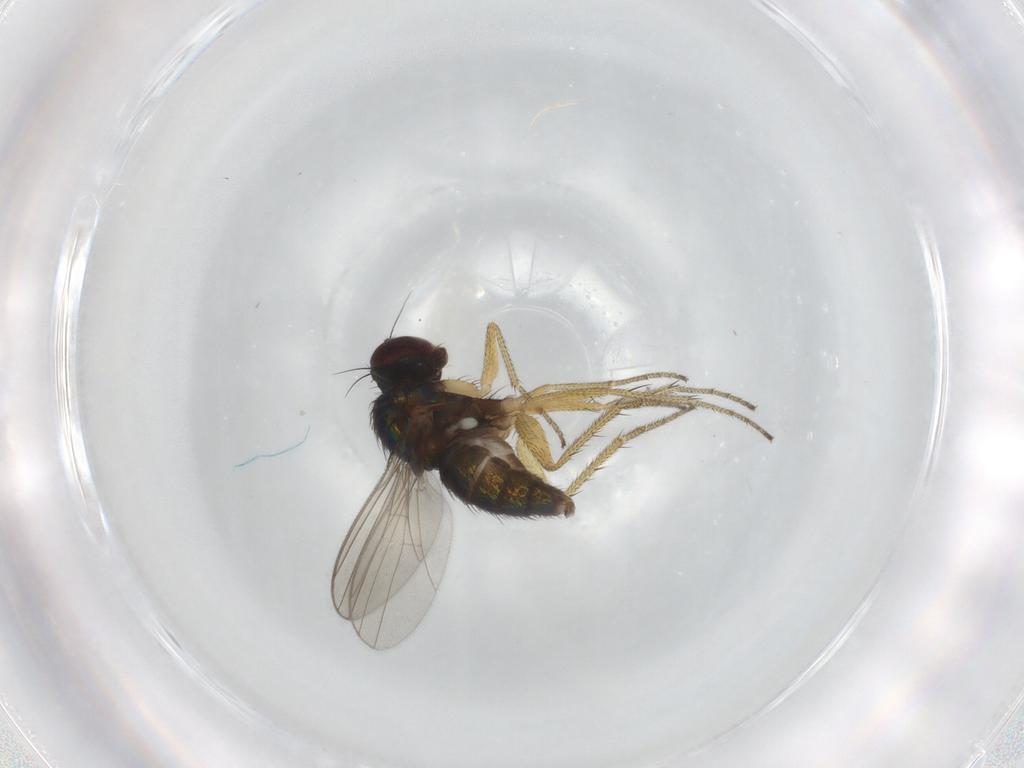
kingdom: Animalia
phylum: Arthropoda
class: Insecta
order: Diptera
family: Dolichopodidae
